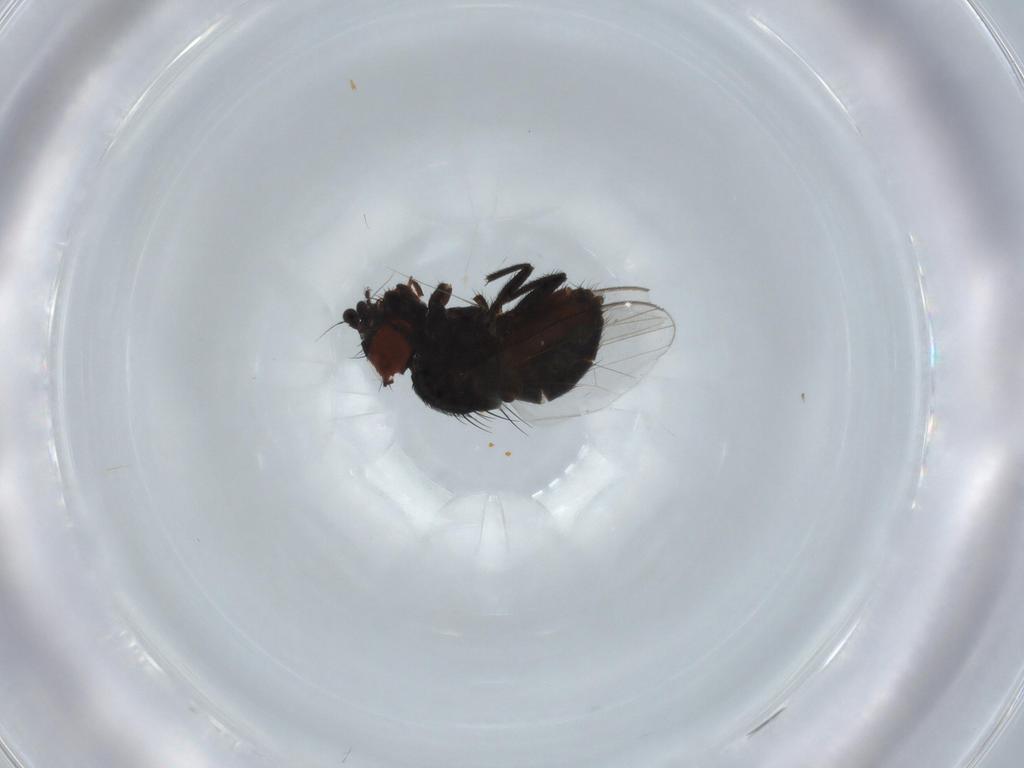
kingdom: Animalia
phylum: Arthropoda
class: Insecta
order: Diptera
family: Milichiidae
